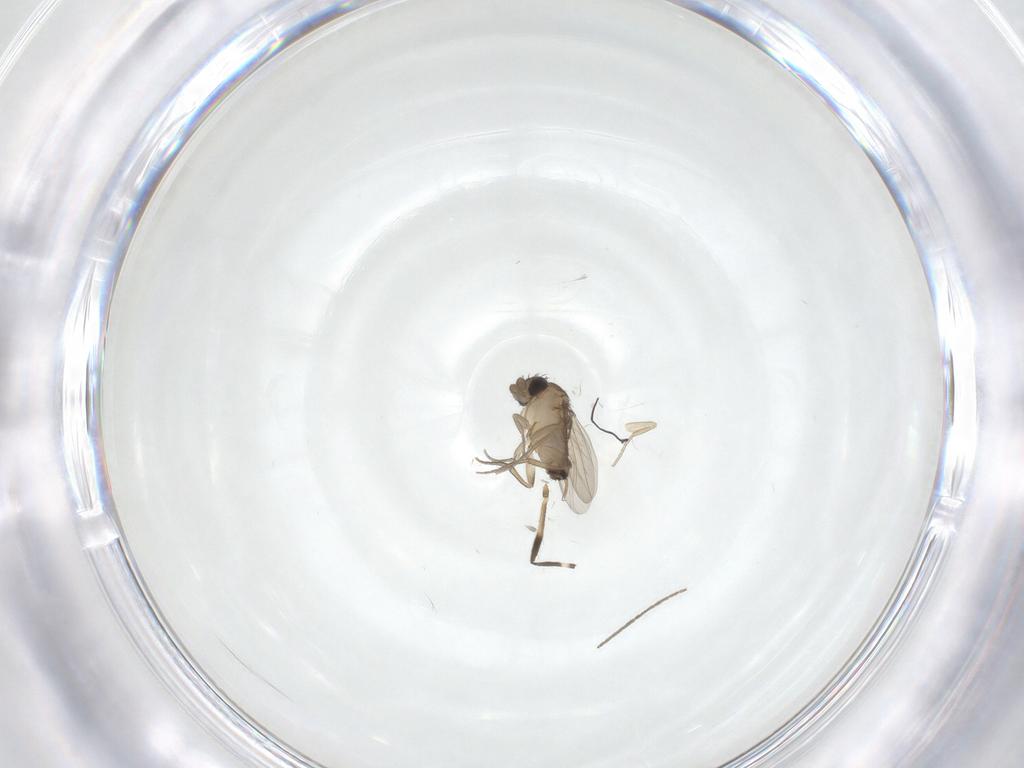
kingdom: Animalia
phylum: Arthropoda
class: Insecta
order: Diptera
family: Phoridae
